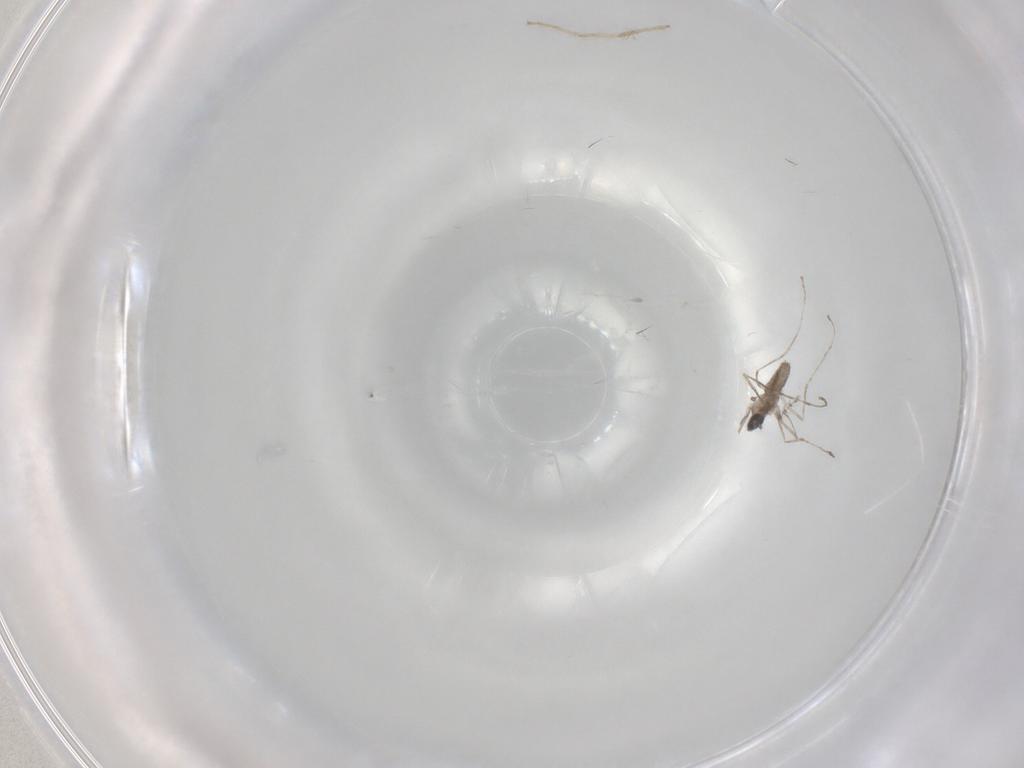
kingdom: Animalia
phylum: Arthropoda
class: Insecta
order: Diptera
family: Cecidomyiidae
